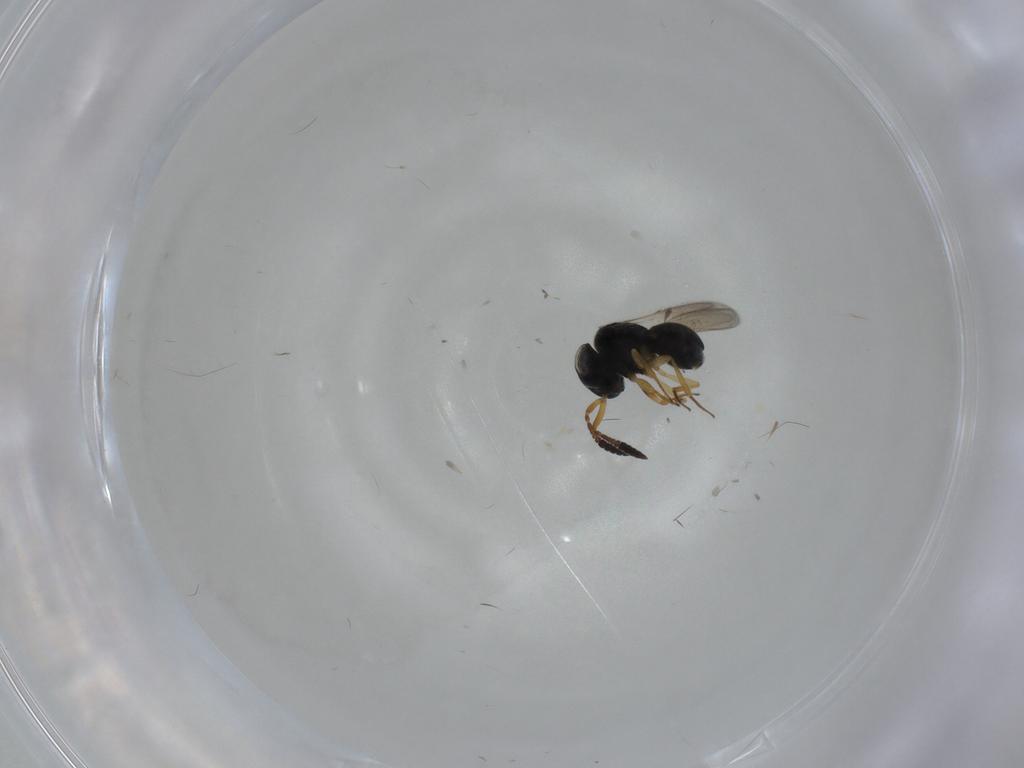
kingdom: Animalia
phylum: Arthropoda
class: Insecta
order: Hymenoptera
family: Scelionidae
